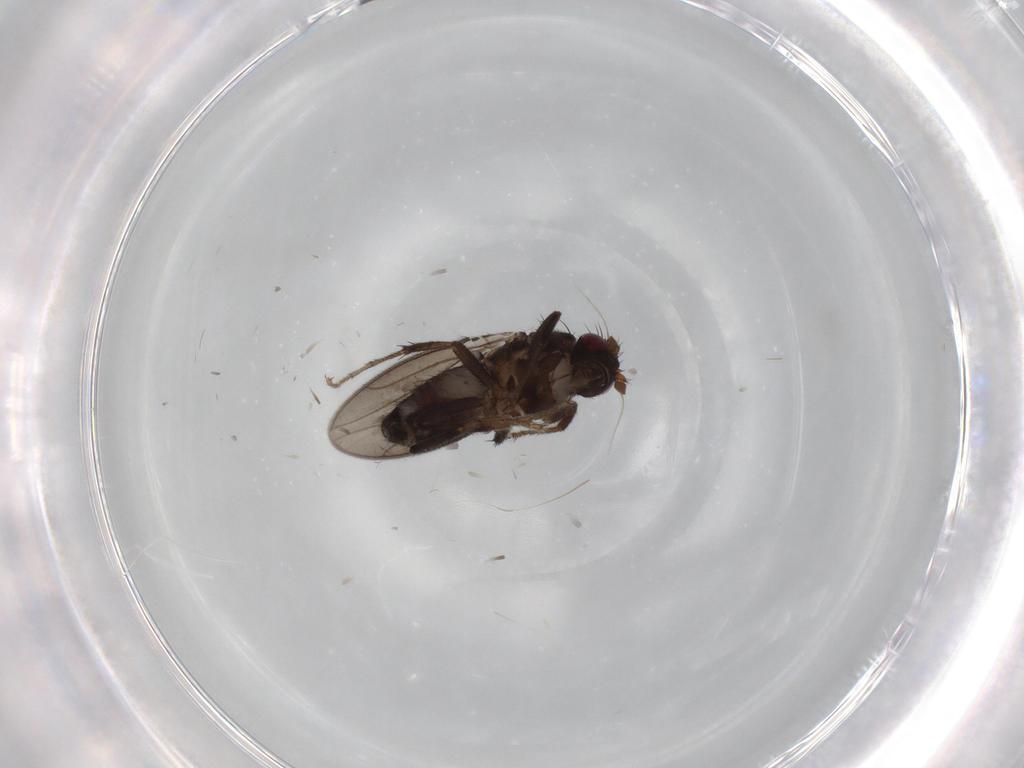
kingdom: Animalia
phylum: Arthropoda
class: Insecta
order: Diptera
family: Sphaeroceridae
